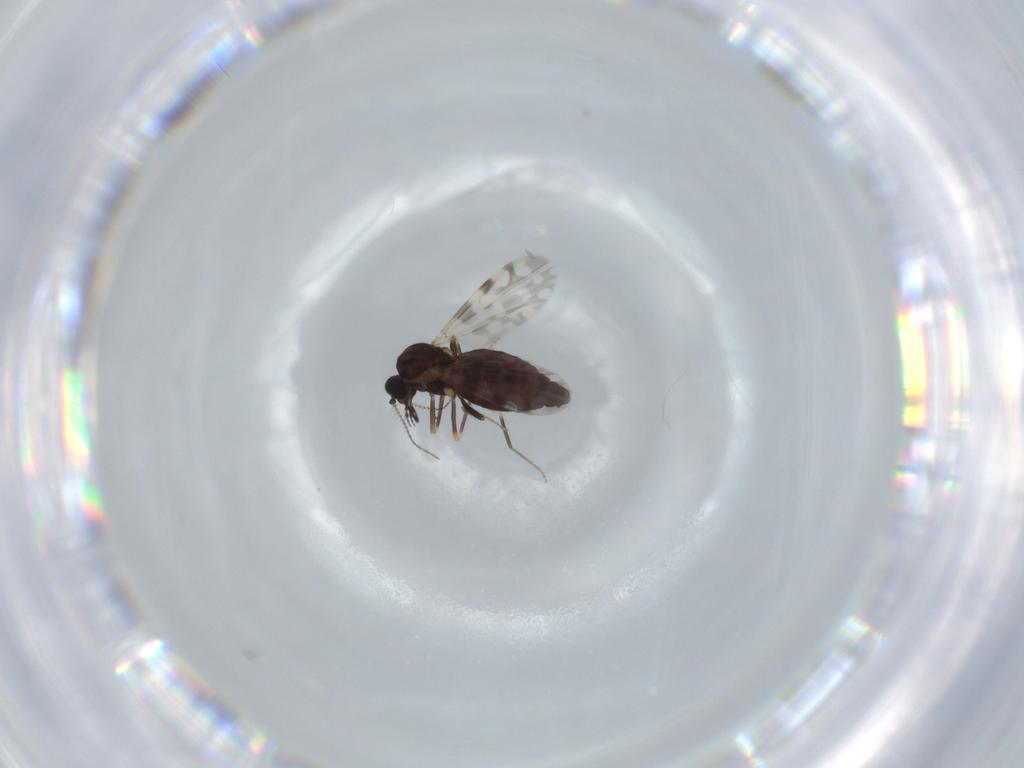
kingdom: Animalia
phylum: Arthropoda
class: Insecta
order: Diptera
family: Ceratopogonidae
